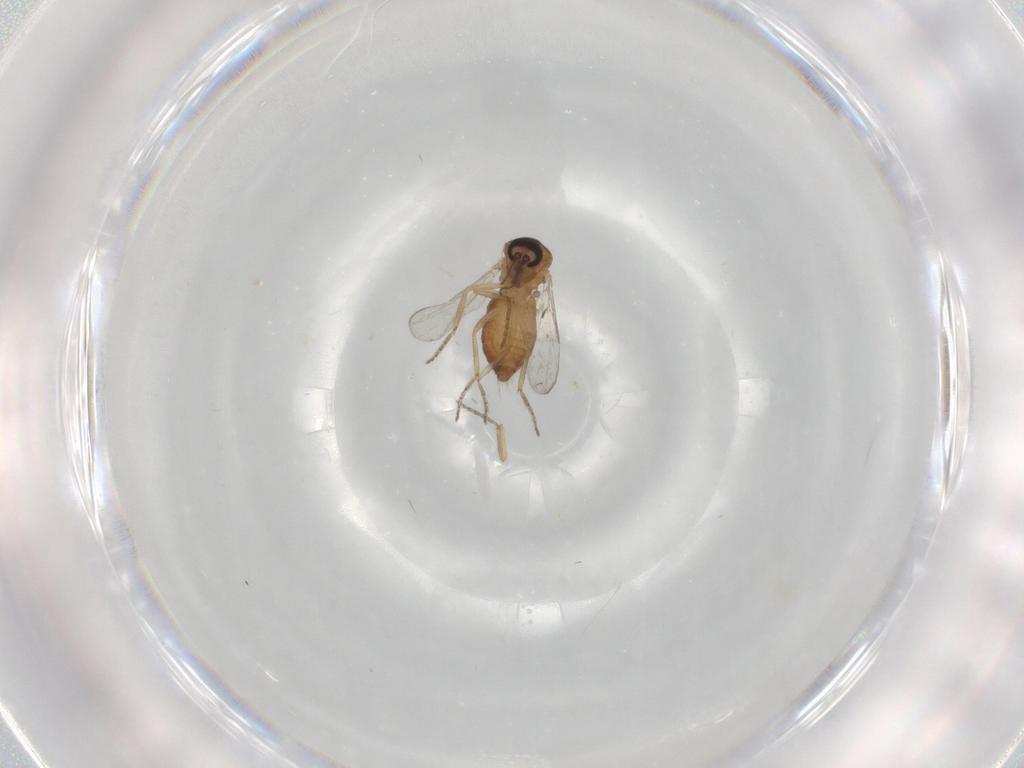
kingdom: Animalia
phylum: Arthropoda
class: Insecta
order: Diptera
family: Ceratopogonidae
